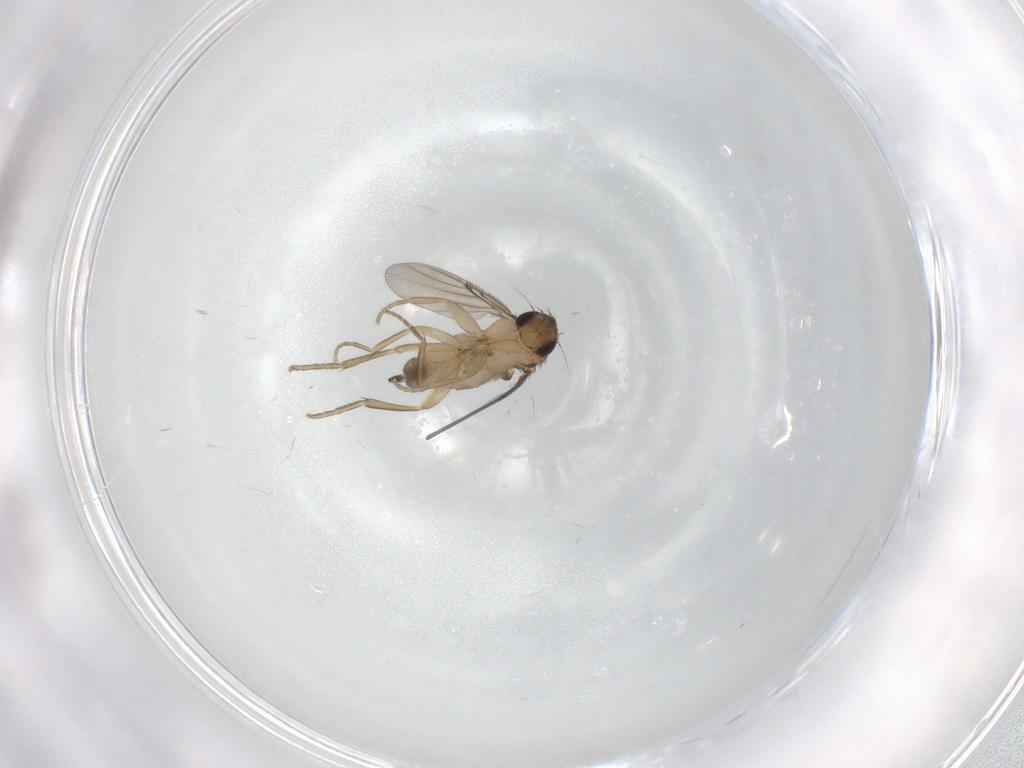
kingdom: Animalia
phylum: Arthropoda
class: Insecta
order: Diptera
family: Phoridae
